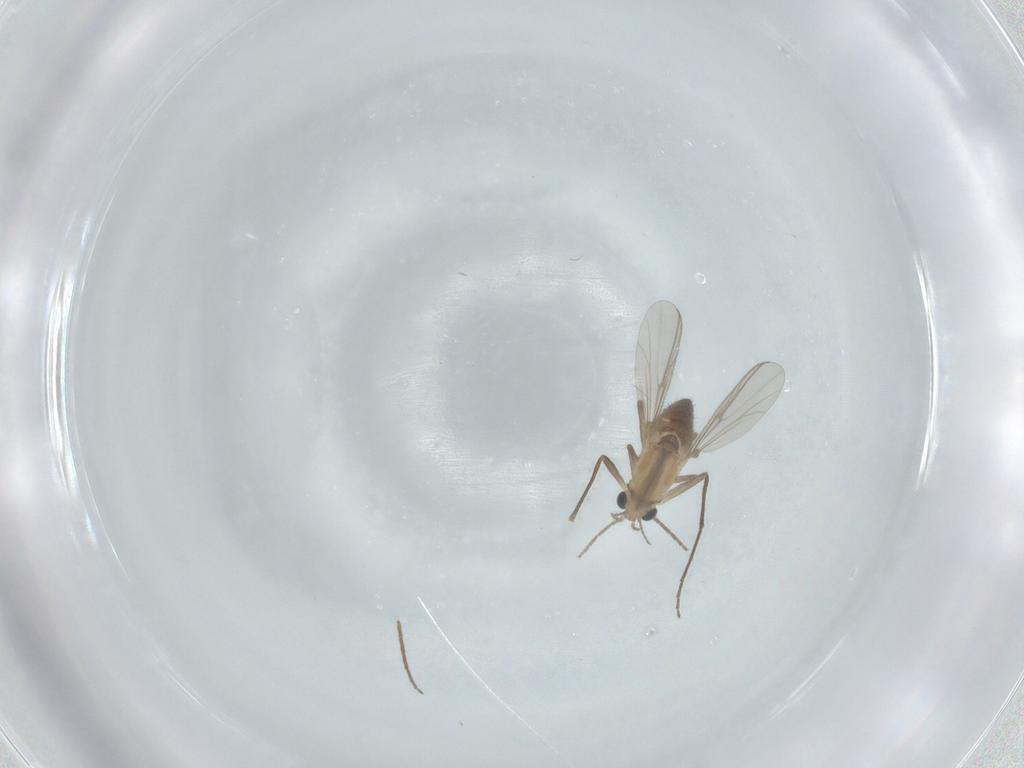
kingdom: Animalia
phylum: Arthropoda
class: Insecta
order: Diptera
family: Chironomidae
